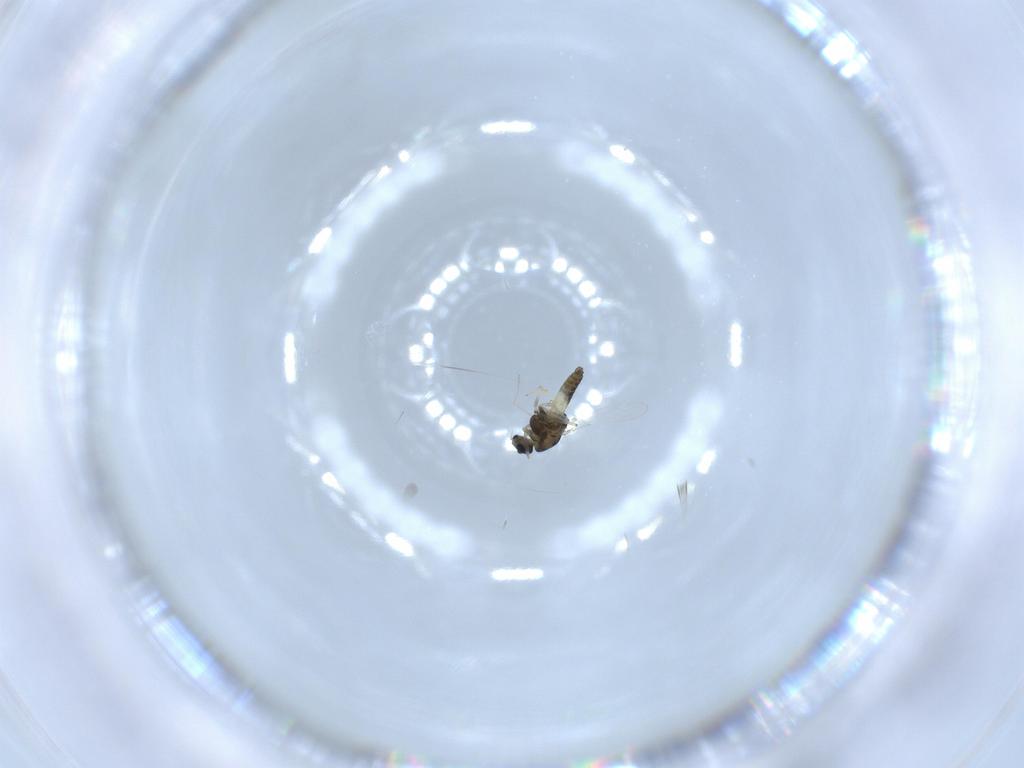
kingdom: Animalia
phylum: Arthropoda
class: Insecta
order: Diptera
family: Chironomidae
